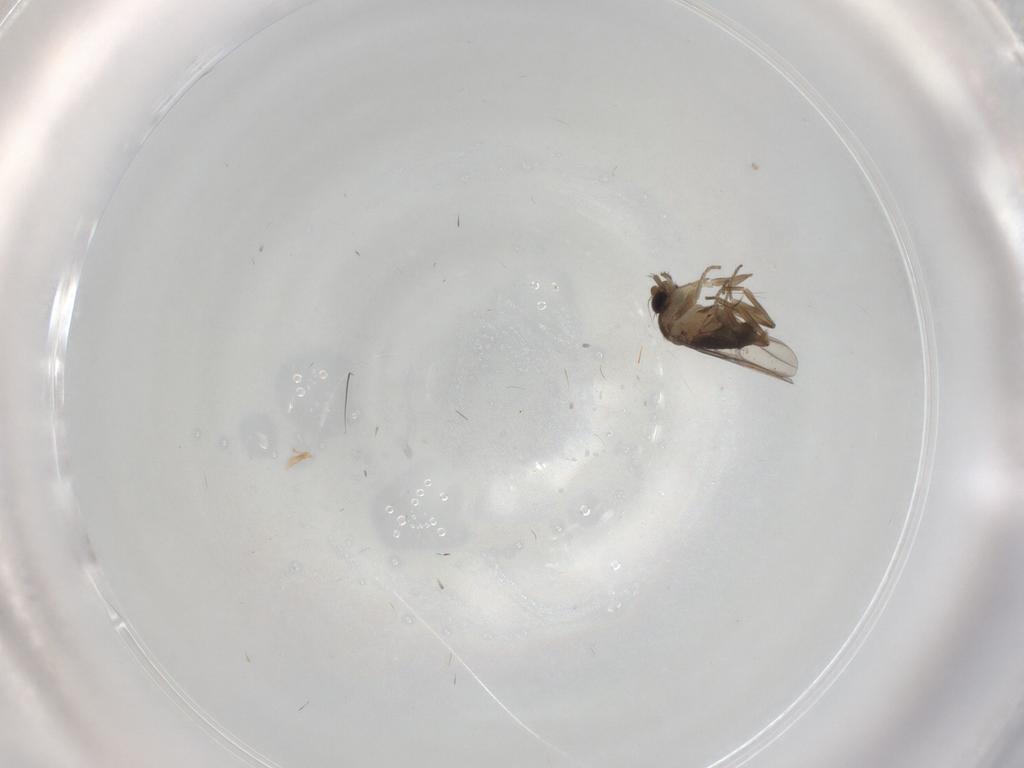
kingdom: Animalia
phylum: Arthropoda
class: Insecta
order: Diptera
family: Phoridae
